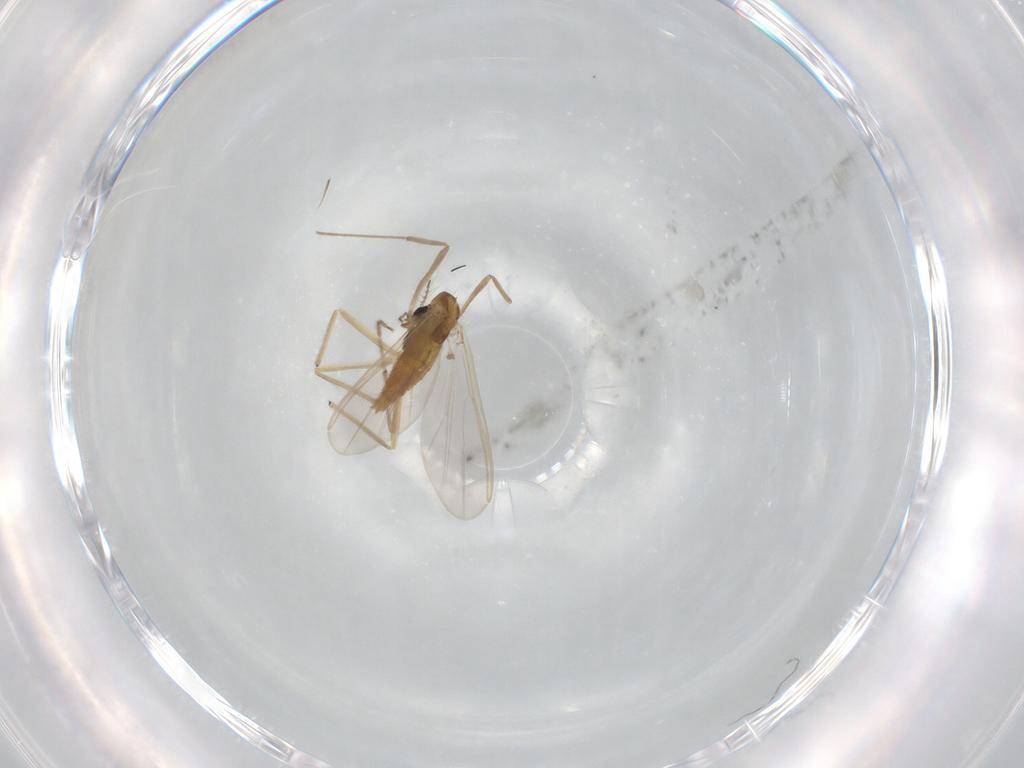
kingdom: Animalia
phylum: Arthropoda
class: Insecta
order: Diptera
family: Chironomidae
